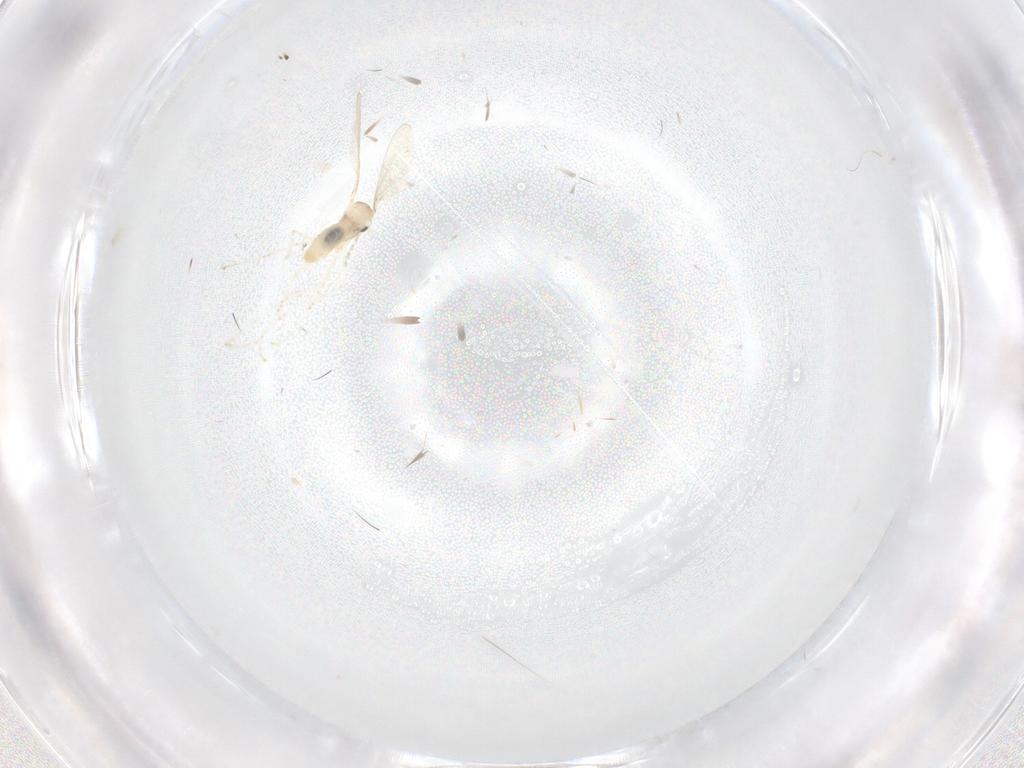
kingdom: Animalia
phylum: Arthropoda
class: Insecta
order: Diptera
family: Cecidomyiidae
